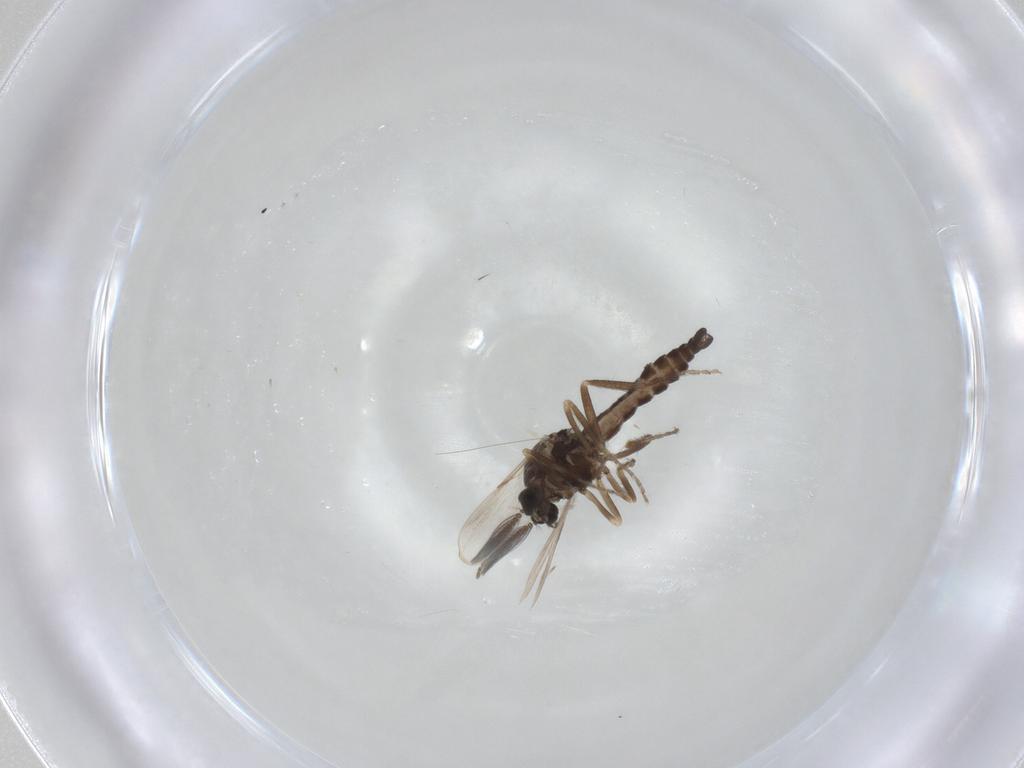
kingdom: Animalia
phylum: Arthropoda
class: Insecta
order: Diptera
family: Ceratopogonidae
